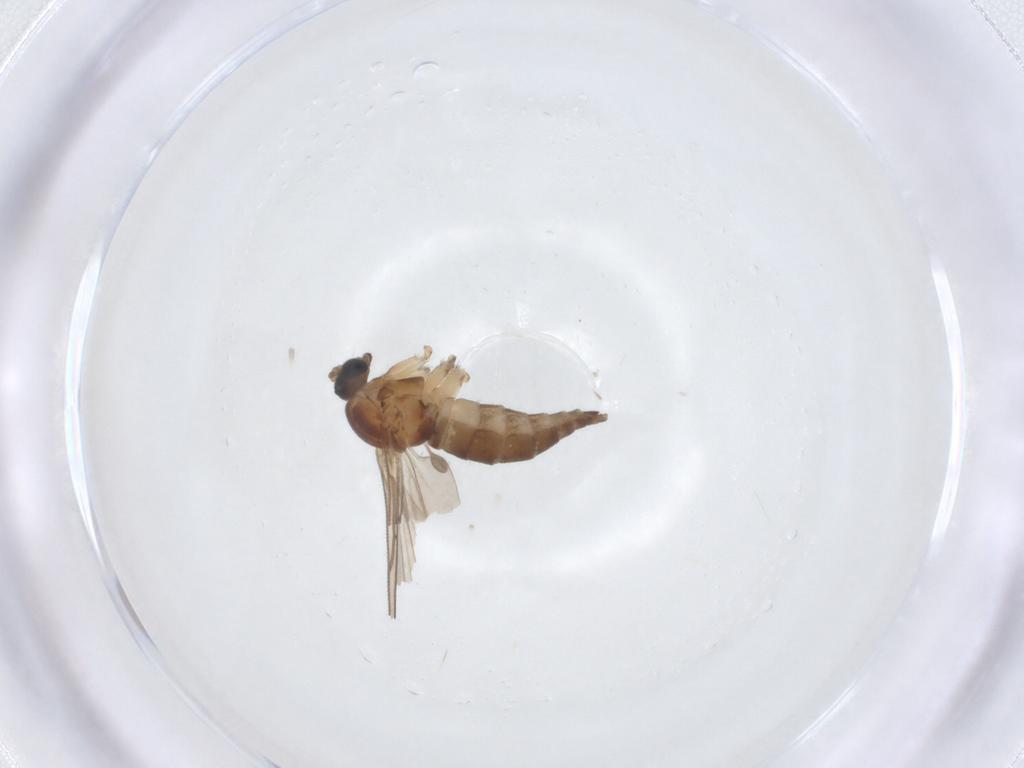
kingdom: Animalia
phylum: Arthropoda
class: Insecta
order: Diptera
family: Sciaridae
